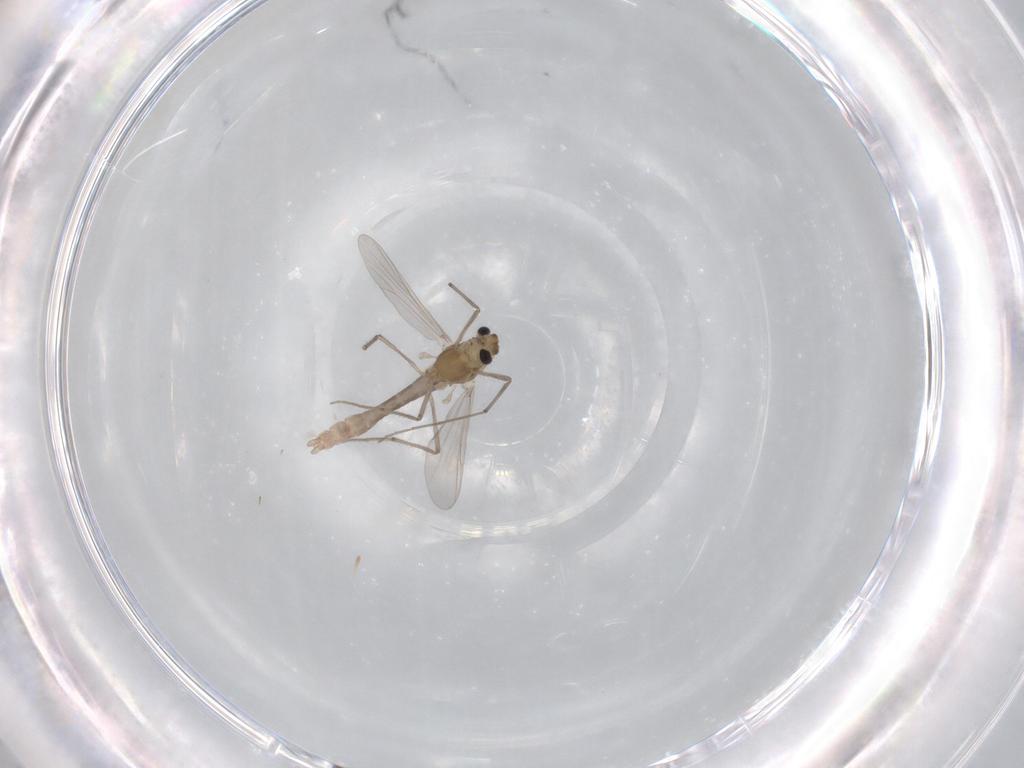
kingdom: Animalia
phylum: Arthropoda
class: Insecta
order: Diptera
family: Chironomidae
